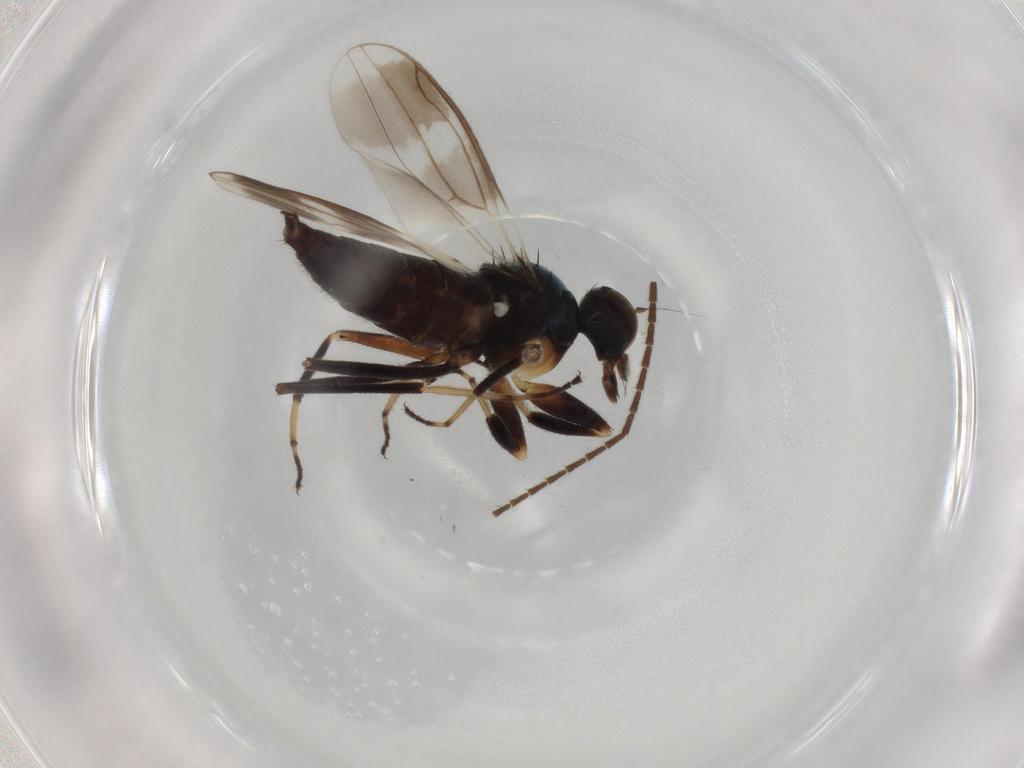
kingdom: Animalia
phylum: Arthropoda
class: Insecta
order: Diptera
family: Hybotidae
